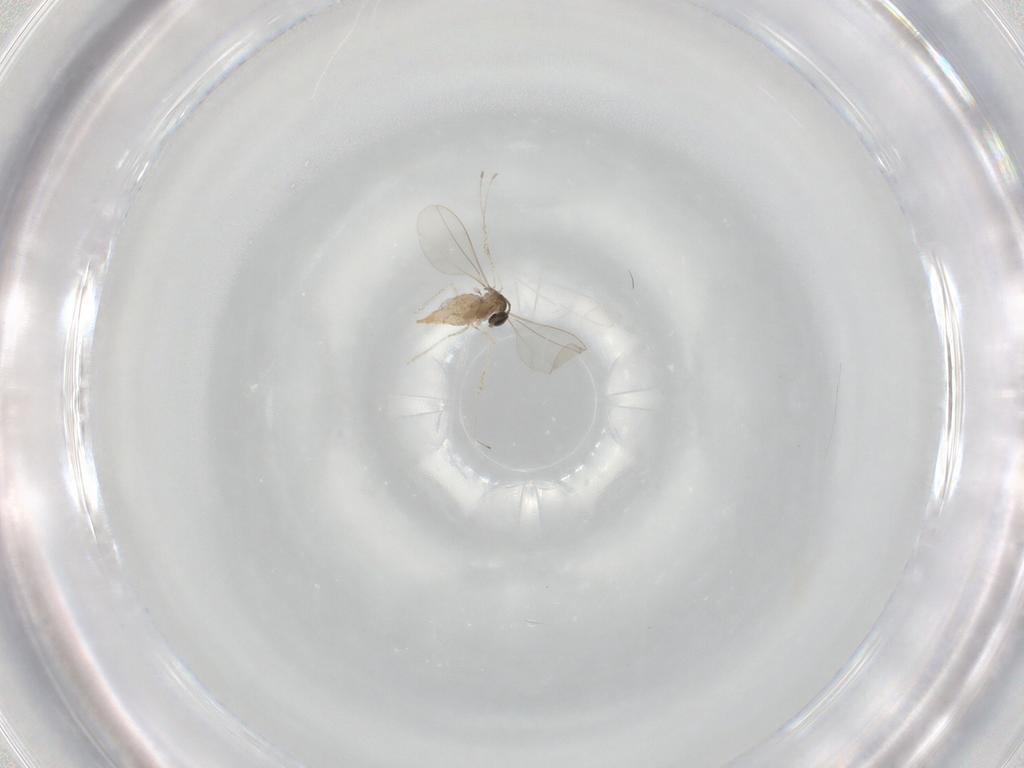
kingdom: Animalia
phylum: Arthropoda
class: Insecta
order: Diptera
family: Cecidomyiidae
